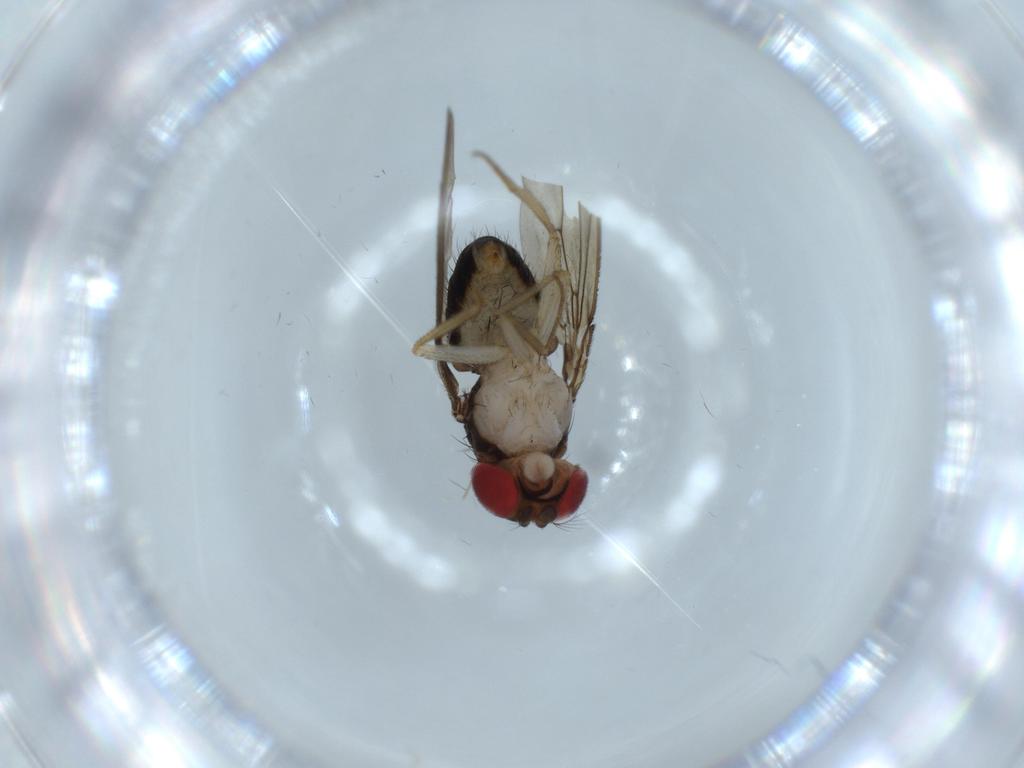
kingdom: Animalia
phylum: Arthropoda
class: Insecta
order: Diptera
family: Drosophilidae
